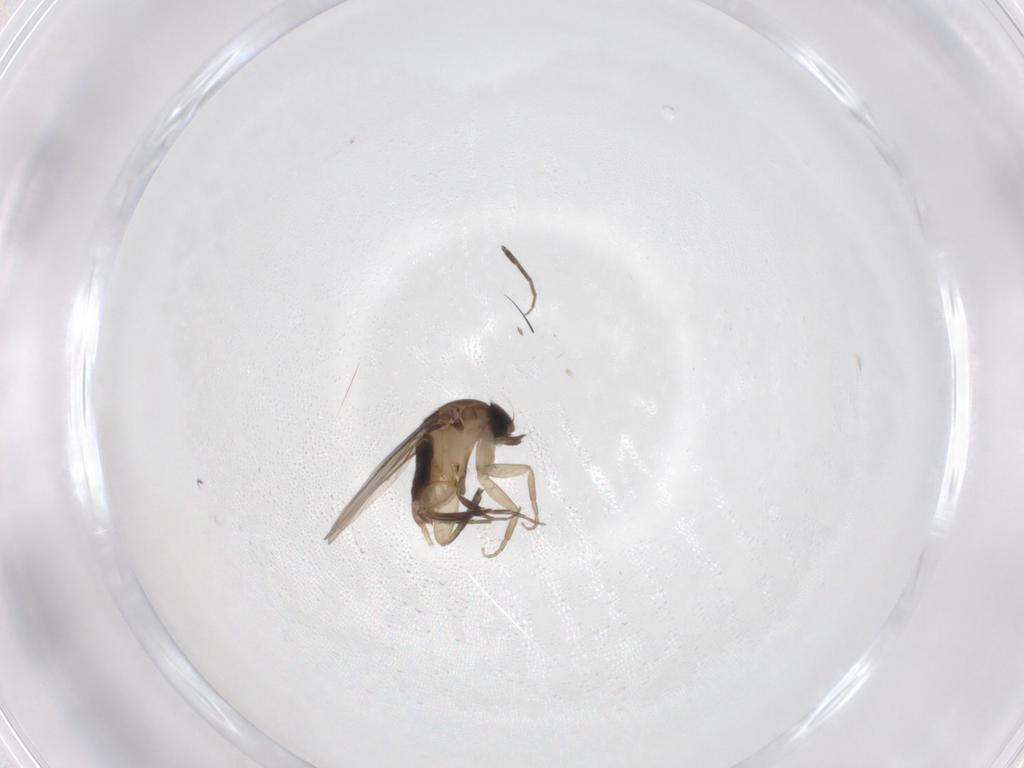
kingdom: Animalia
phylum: Arthropoda
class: Insecta
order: Diptera
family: Phoridae
